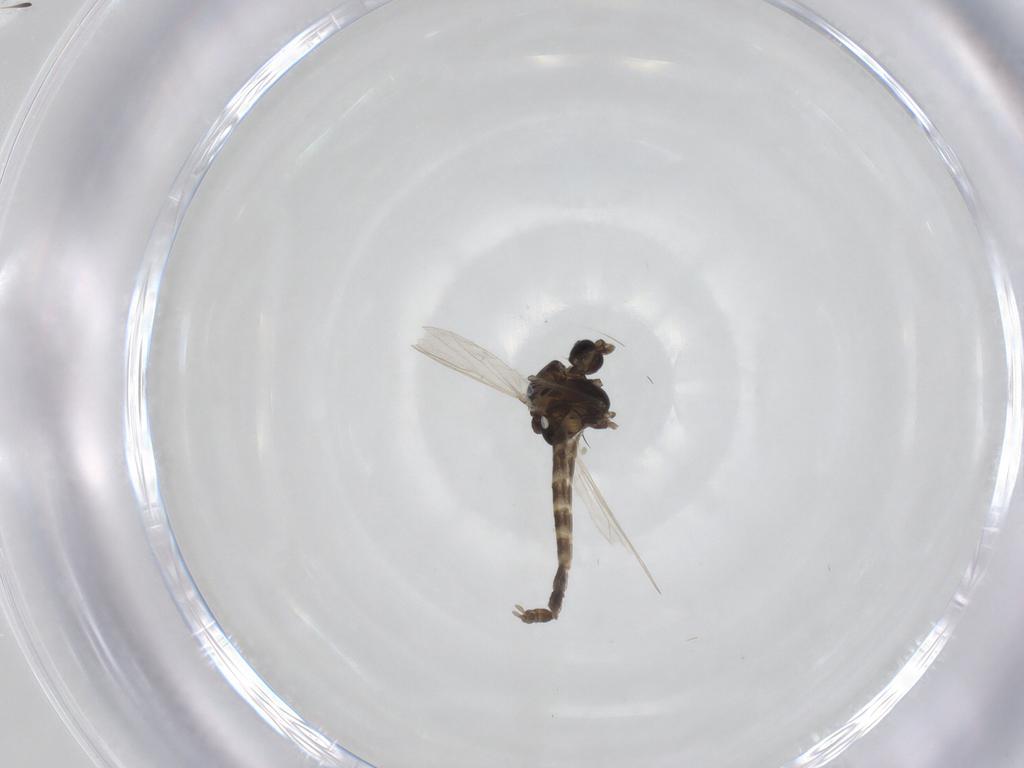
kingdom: Animalia
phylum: Arthropoda
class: Insecta
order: Diptera
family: Chironomidae
